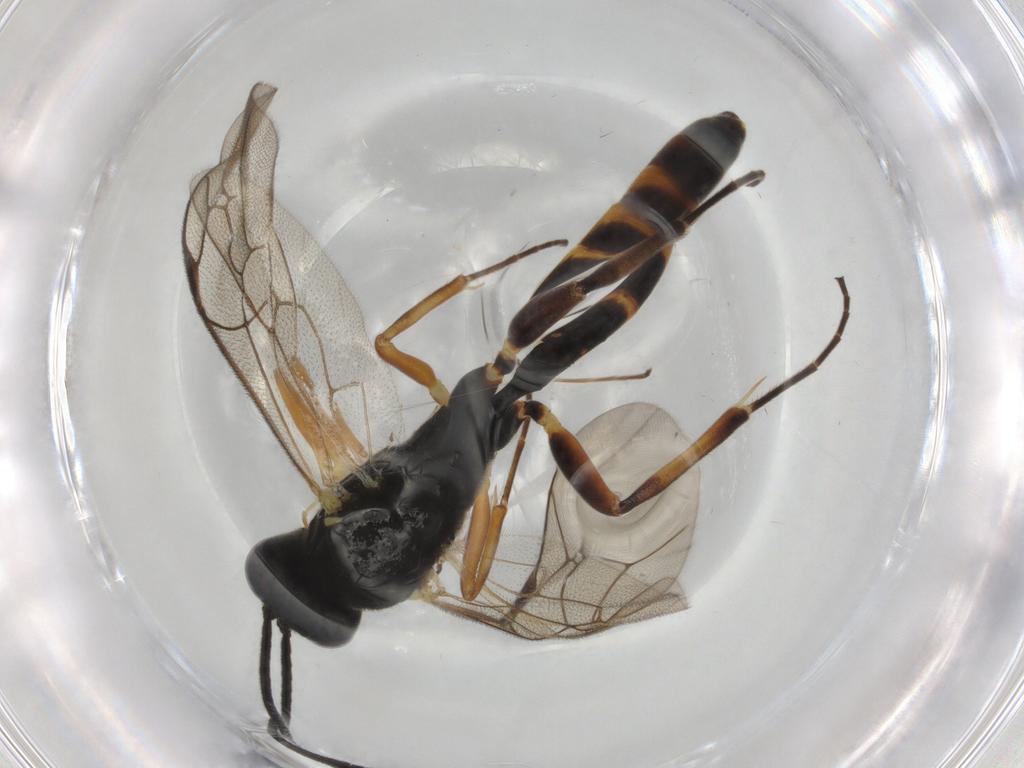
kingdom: Animalia
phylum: Arthropoda
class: Insecta
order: Hymenoptera
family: Ichneumonidae
